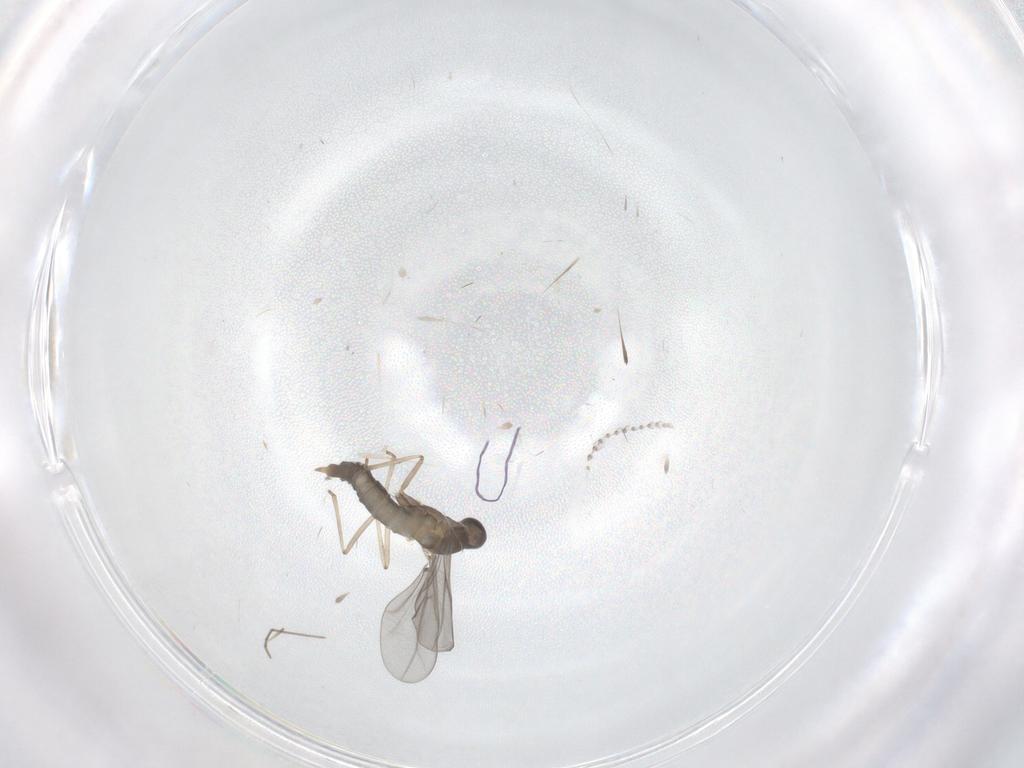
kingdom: Animalia
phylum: Arthropoda
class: Insecta
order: Diptera
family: Cecidomyiidae
